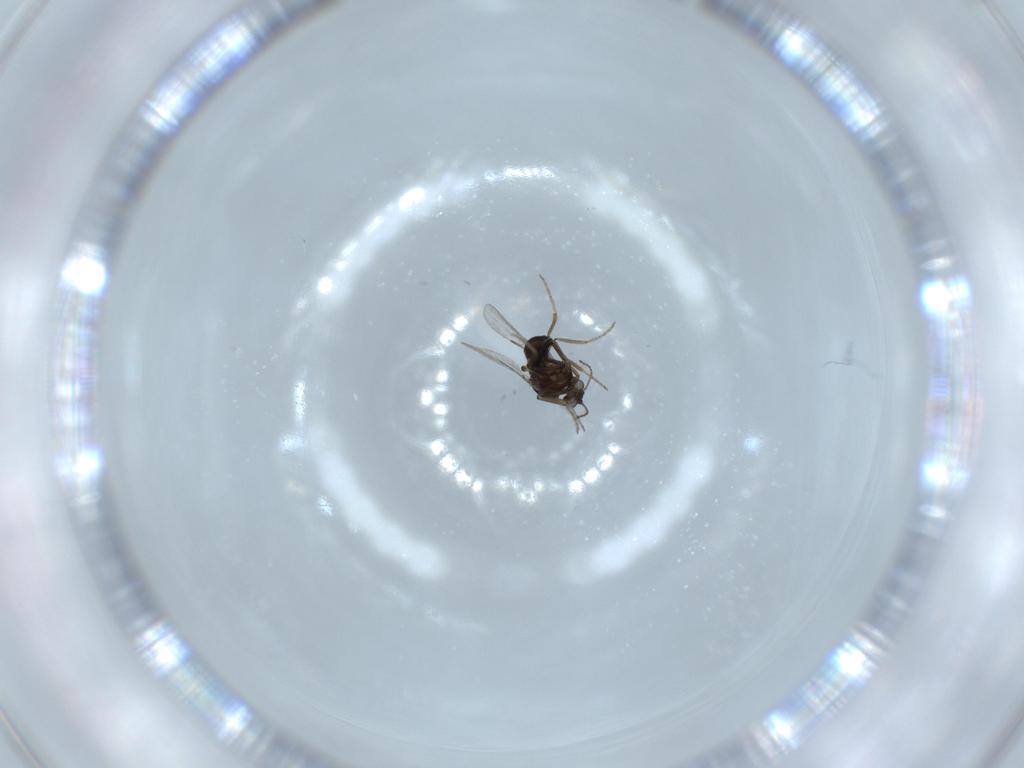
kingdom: Animalia
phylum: Arthropoda
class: Insecta
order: Diptera
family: Ceratopogonidae
